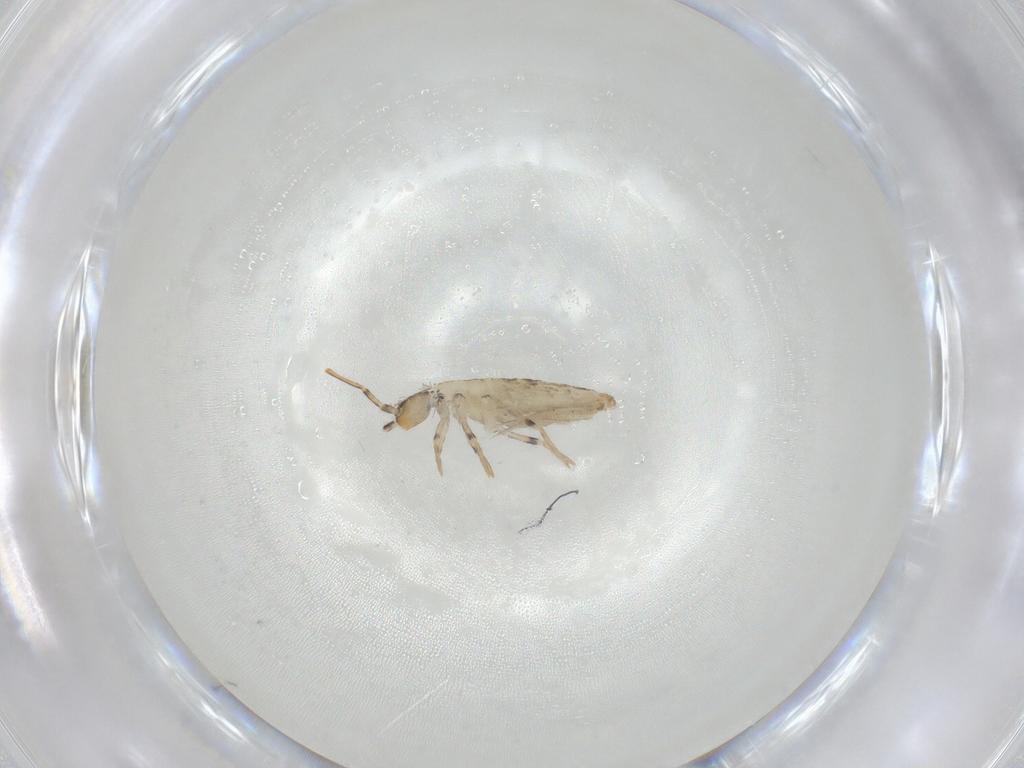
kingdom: Animalia
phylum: Arthropoda
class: Collembola
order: Entomobryomorpha
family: Entomobryidae
